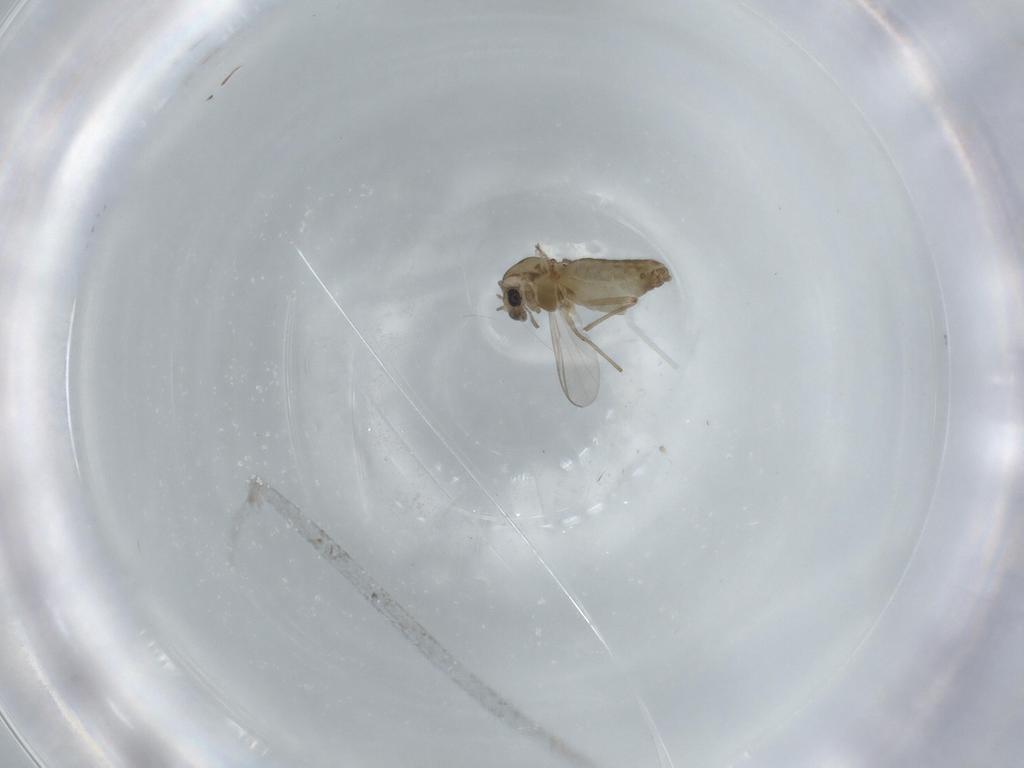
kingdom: Animalia
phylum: Arthropoda
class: Insecta
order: Diptera
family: Chironomidae
